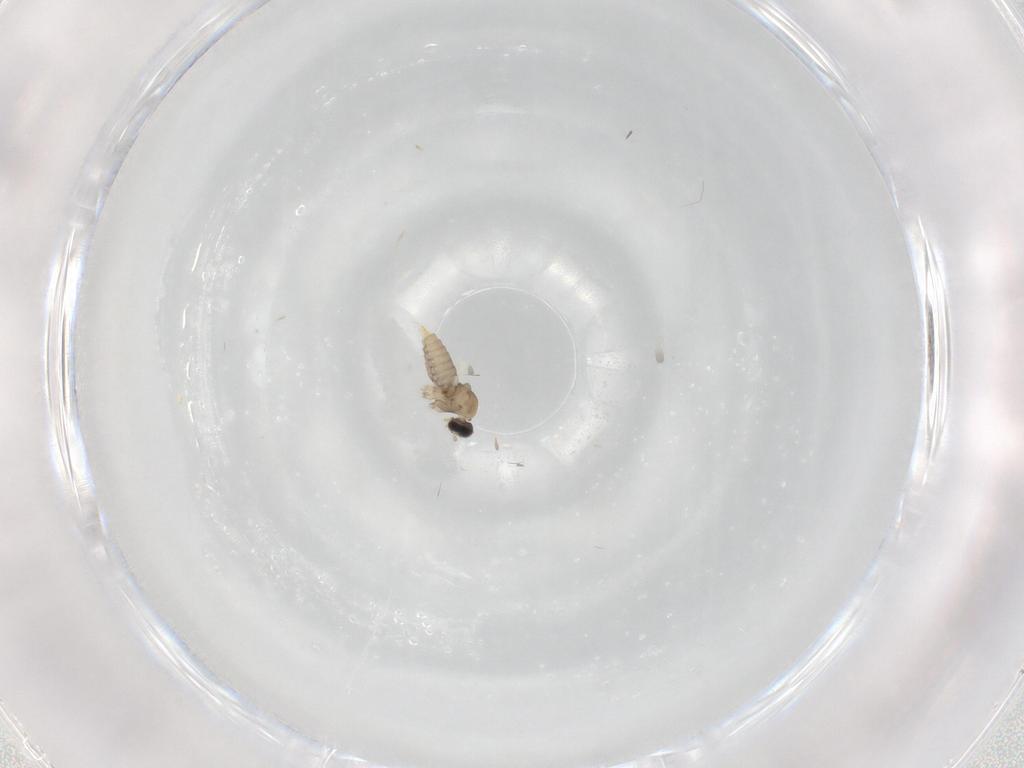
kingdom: Animalia
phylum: Arthropoda
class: Insecta
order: Diptera
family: Cecidomyiidae
